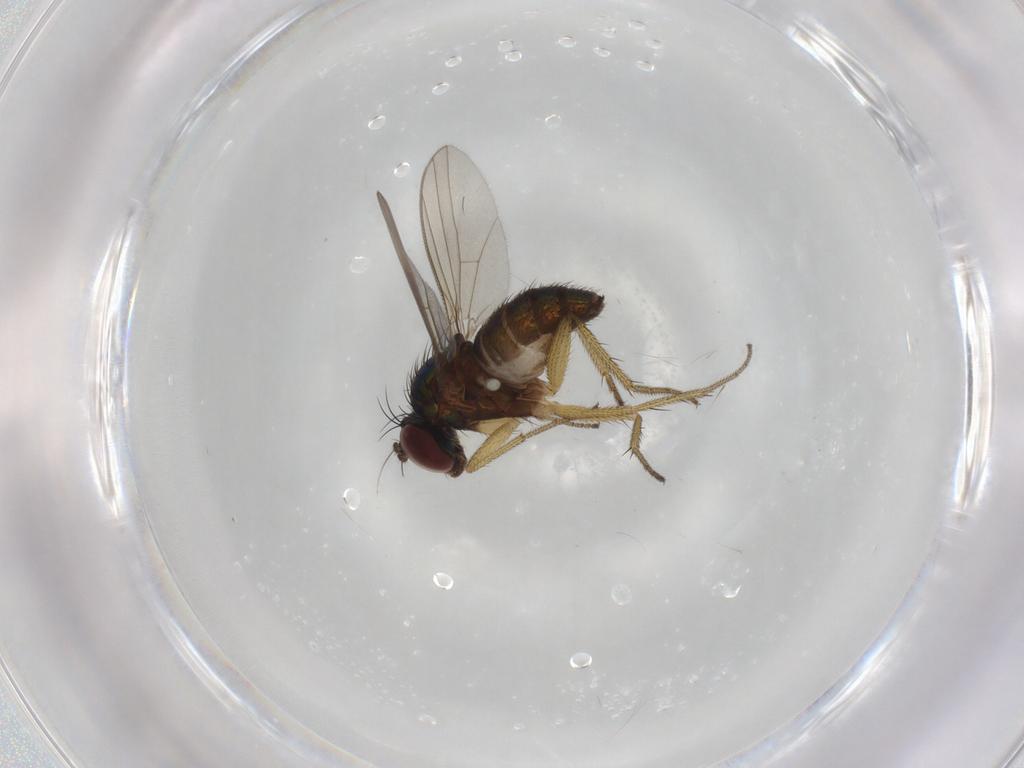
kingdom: Animalia
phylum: Arthropoda
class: Insecta
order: Diptera
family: Dolichopodidae
